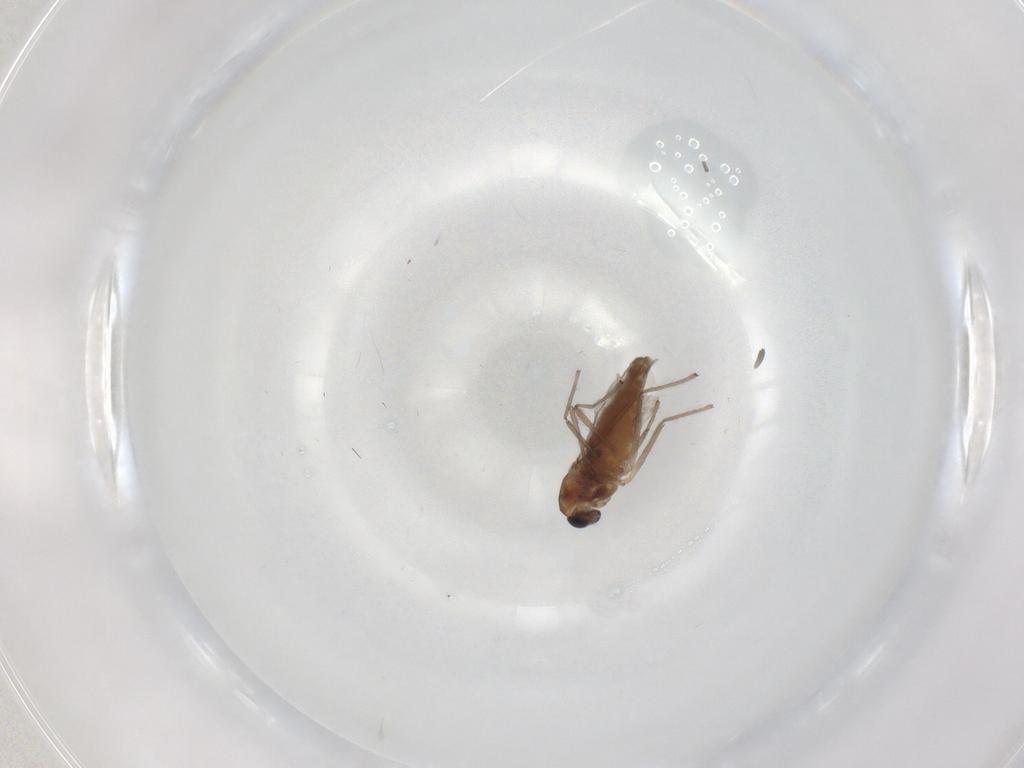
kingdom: Animalia
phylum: Arthropoda
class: Insecta
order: Diptera
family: Chironomidae
